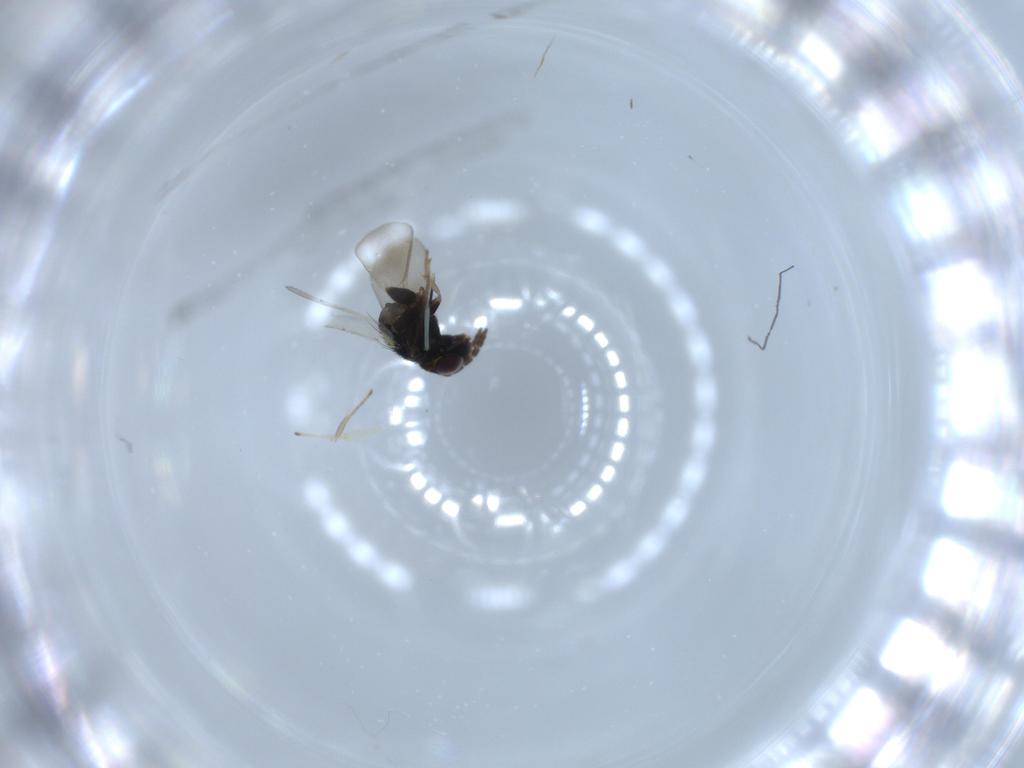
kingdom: Animalia
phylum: Arthropoda
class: Insecta
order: Hymenoptera
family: Aphelinidae
